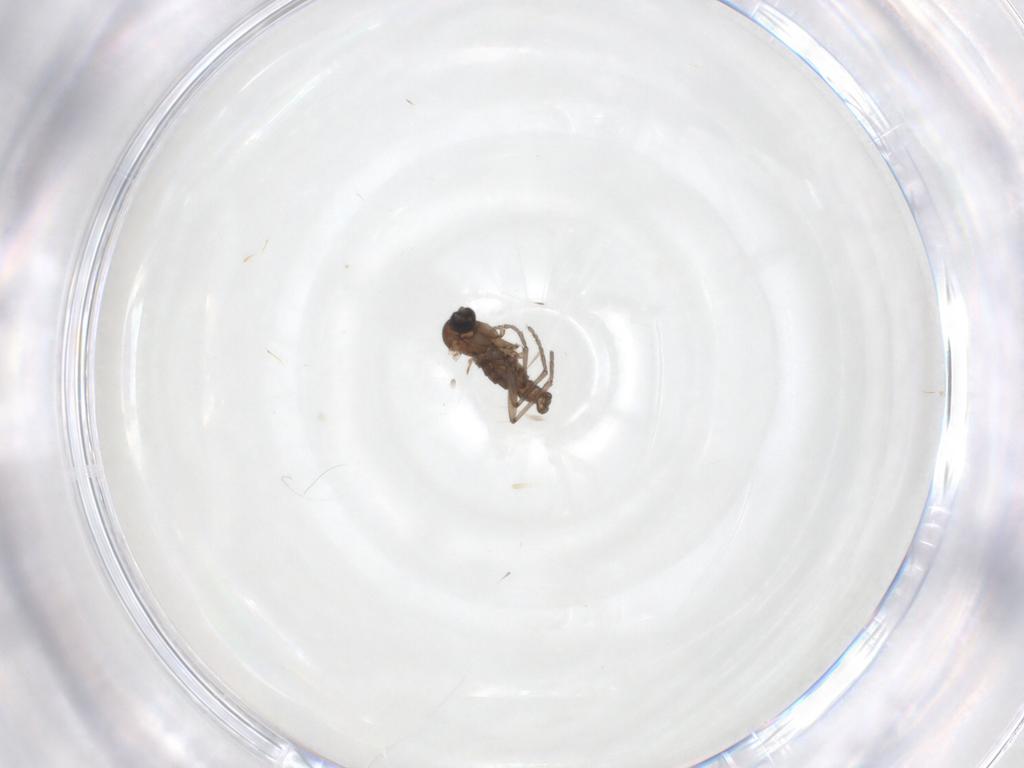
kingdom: Animalia
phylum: Arthropoda
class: Insecta
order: Diptera
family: Sciaridae
